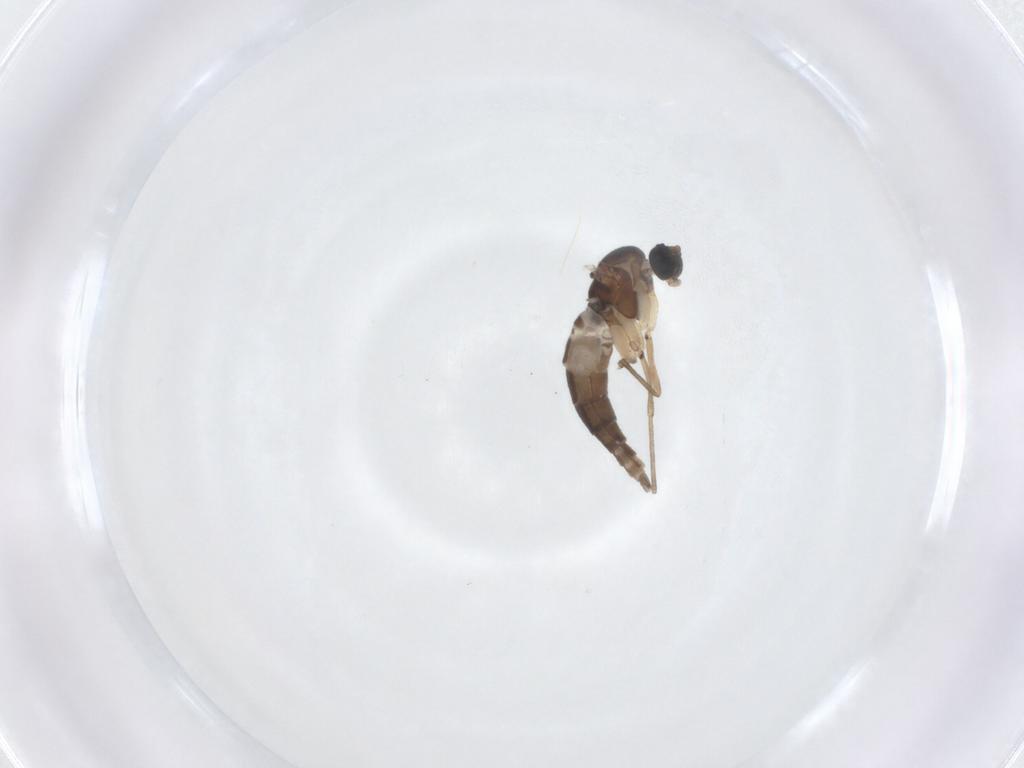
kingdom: Animalia
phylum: Arthropoda
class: Insecta
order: Diptera
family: Sciaridae
